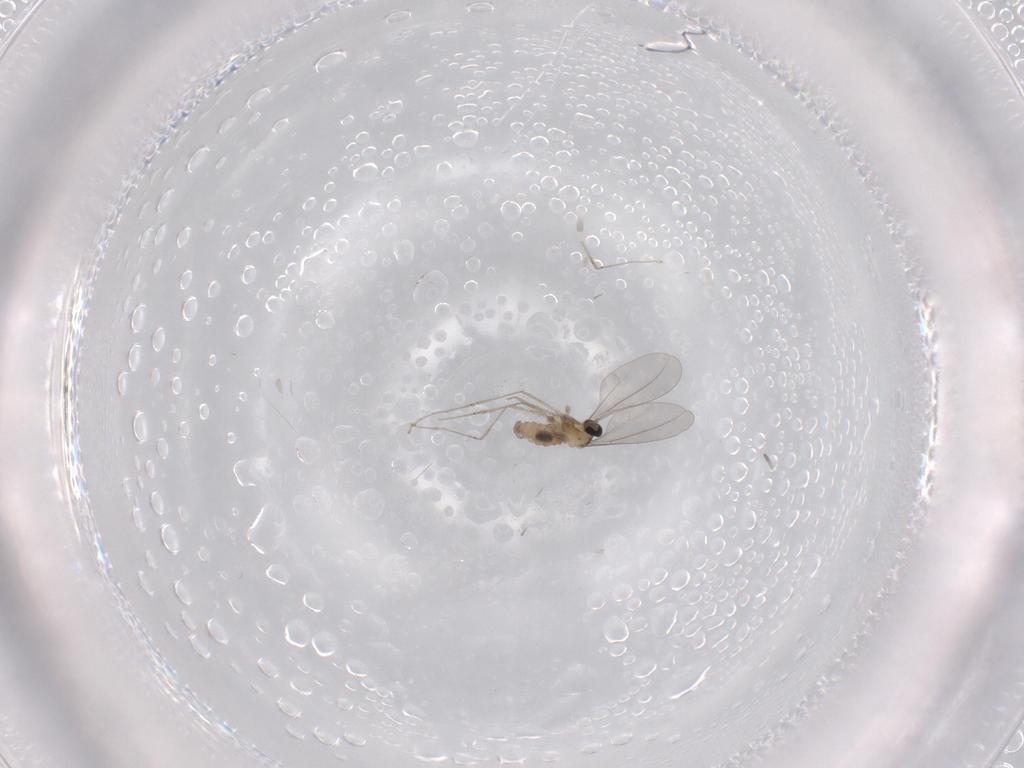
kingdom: Animalia
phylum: Arthropoda
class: Insecta
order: Diptera
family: Cecidomyiidae
